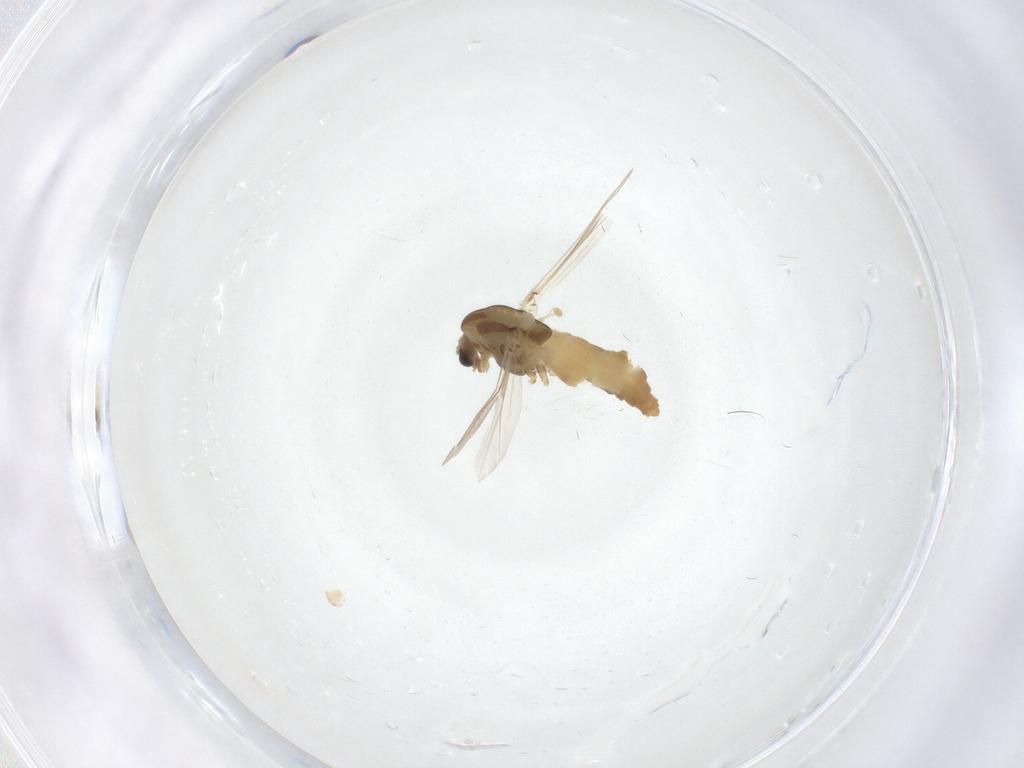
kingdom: Animalia
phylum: Arthropoda
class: Insecta
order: Diptera
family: Chironomidae
